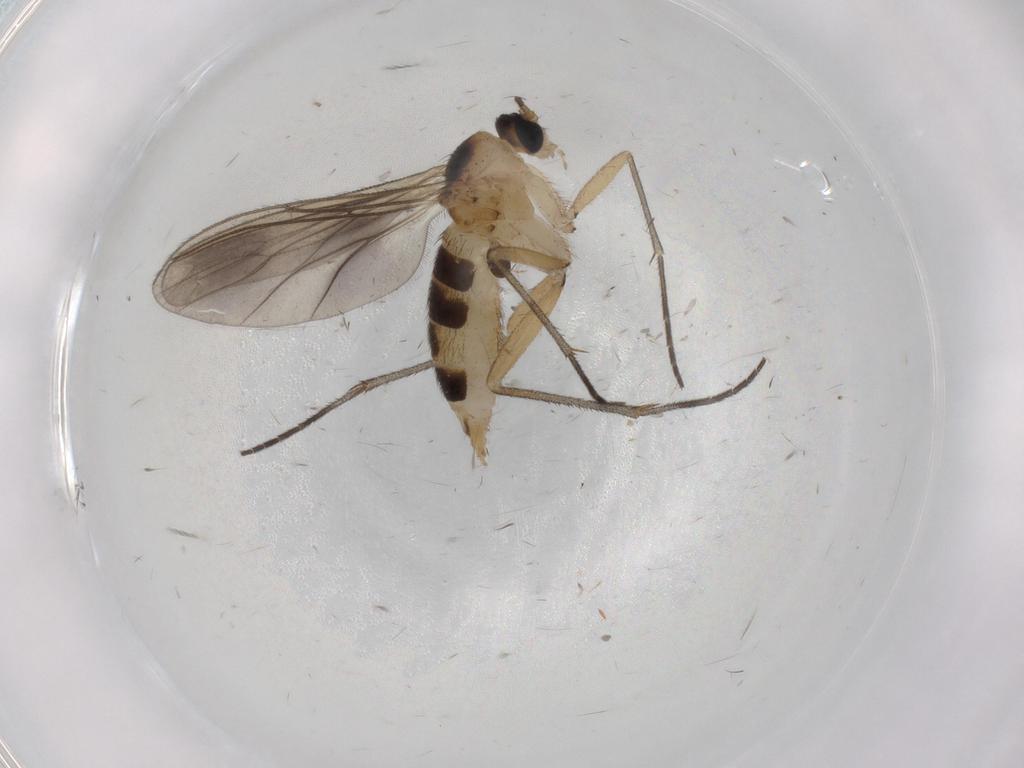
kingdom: Animalia
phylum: Arthropoda
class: Insecta
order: Diptera
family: Sciaridae
